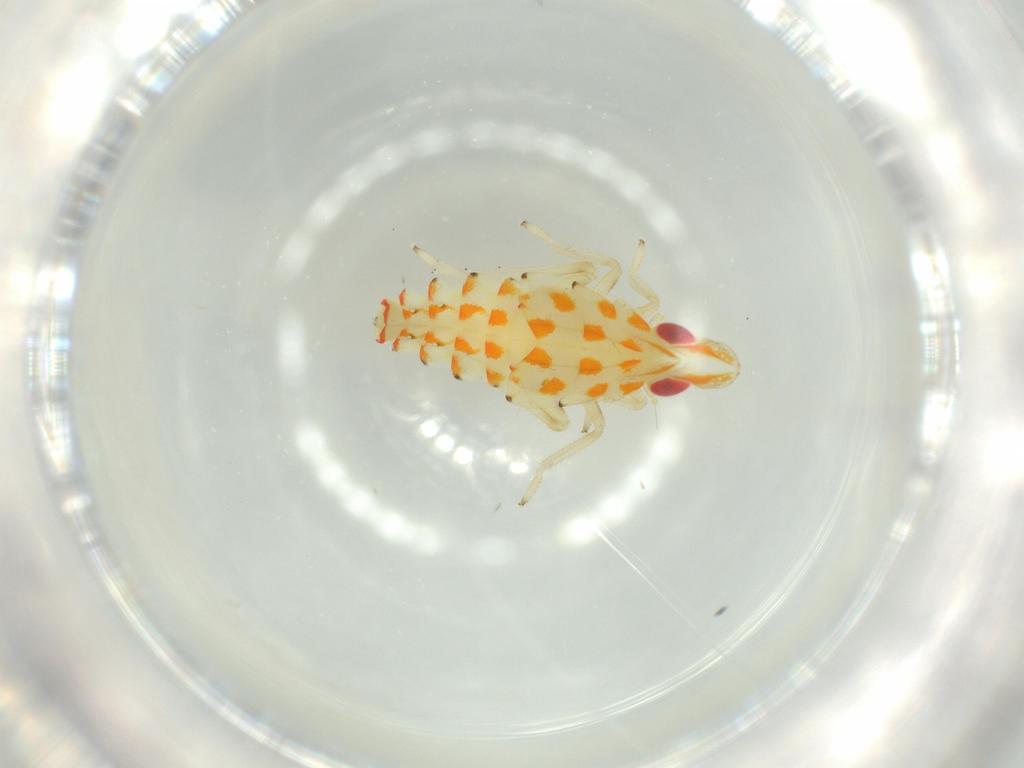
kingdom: Animalia
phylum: Arthropoda
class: Insecta
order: Hemiptera
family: Tropiduchidae
